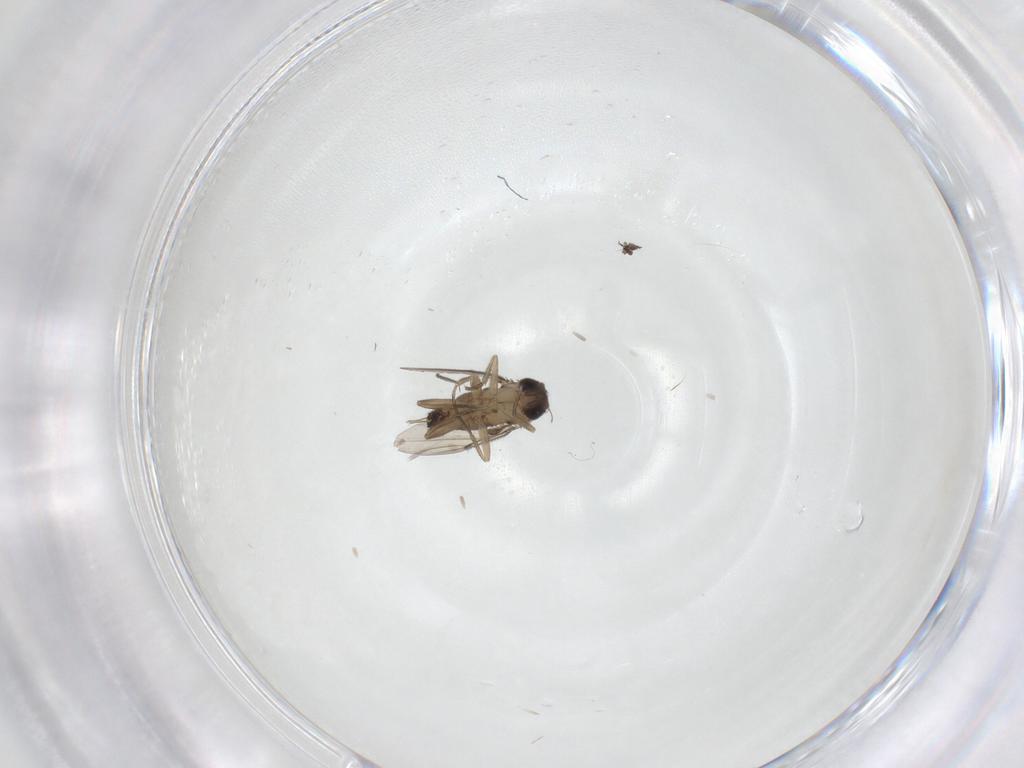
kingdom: Animalia
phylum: Arthropoda
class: Insecta
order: Diptera
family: Phoridae
